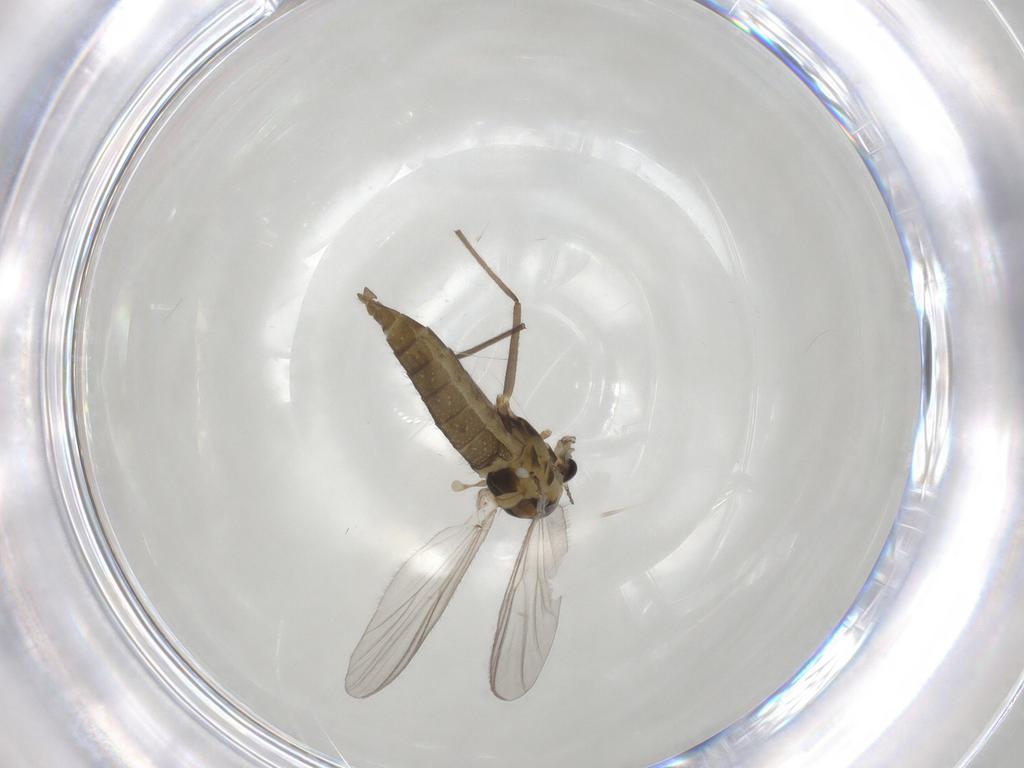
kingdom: Animalia
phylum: Arthropoda
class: Insecta
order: Diptera
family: Chironomidae
